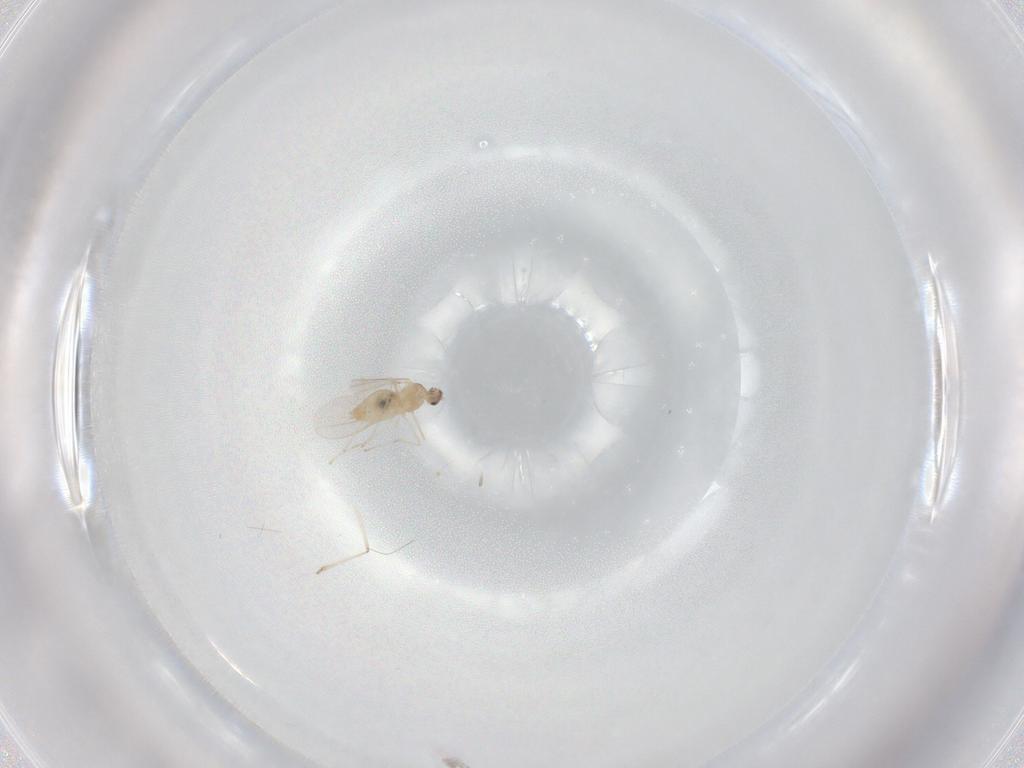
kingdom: Animalia
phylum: Arthropoda
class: Insecta
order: Diptera
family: Cecidomyiidae
